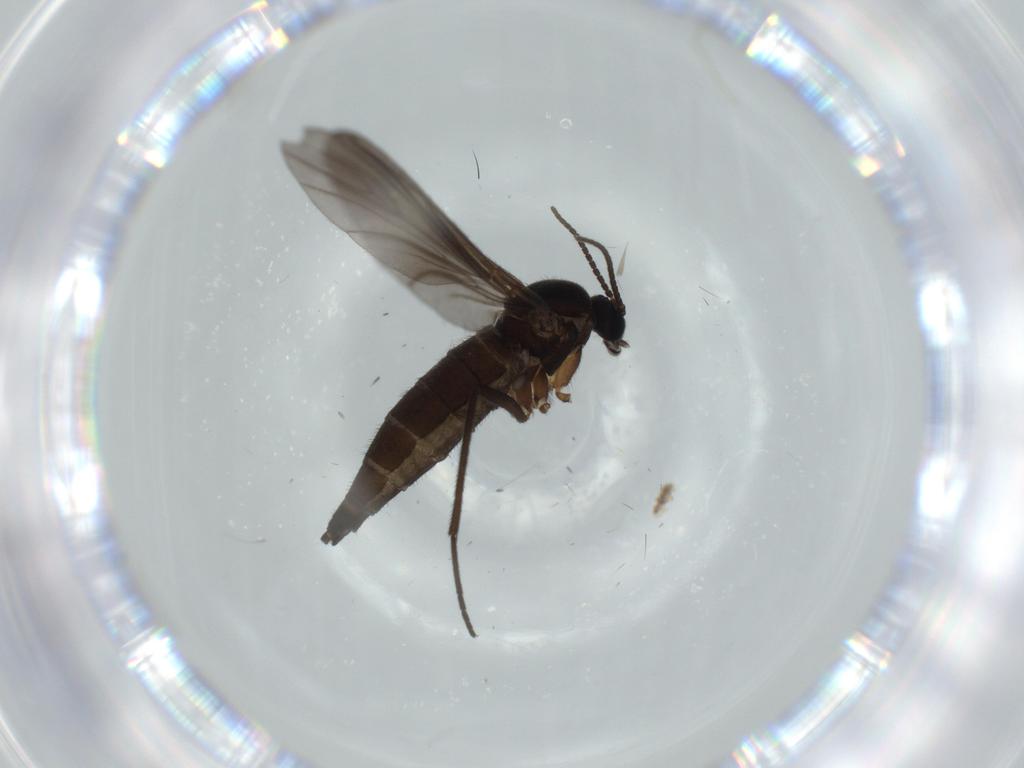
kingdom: Animalia
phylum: Arthropoda
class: Insecta
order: Diptera
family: Sciaridae
